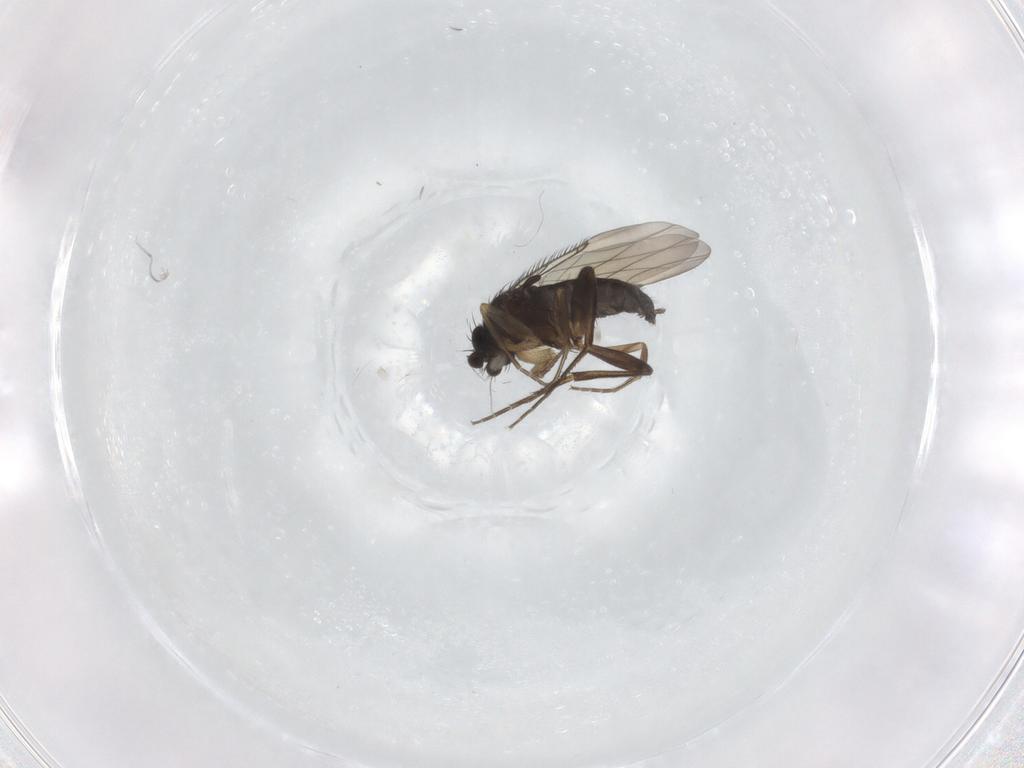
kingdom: Animalia
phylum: Arthropoda
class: Insecta
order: Diptera
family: Phoridae
